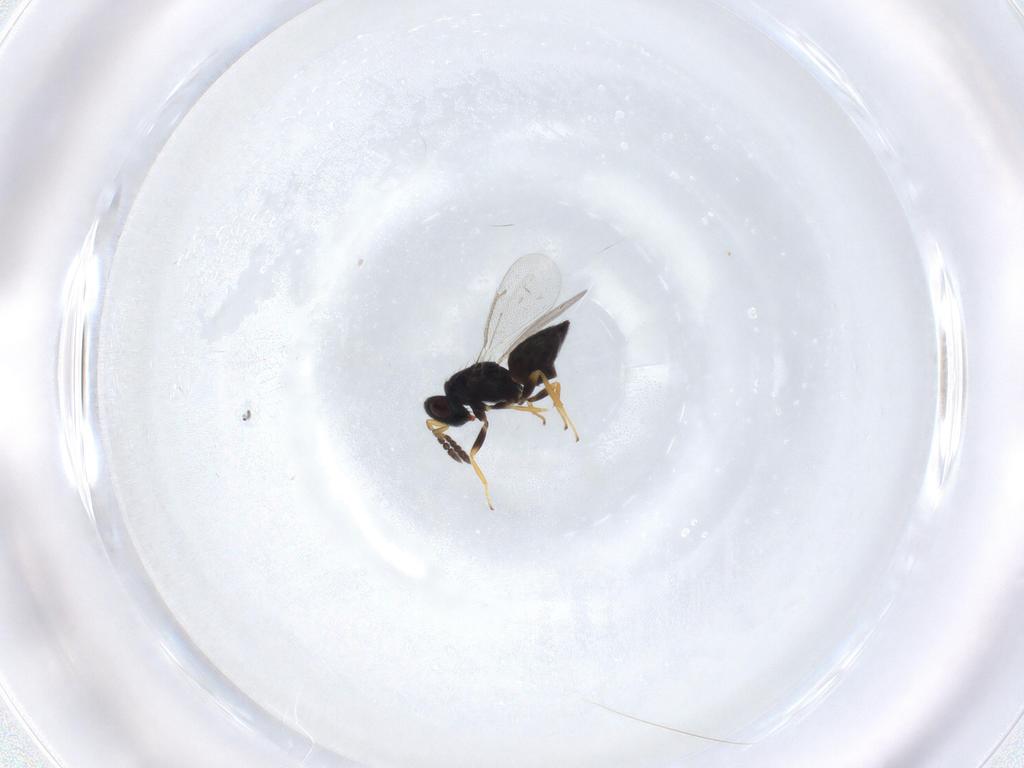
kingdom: Animalia
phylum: Arthropoda
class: Insecta
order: Hymenoptera
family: Eulophidae
